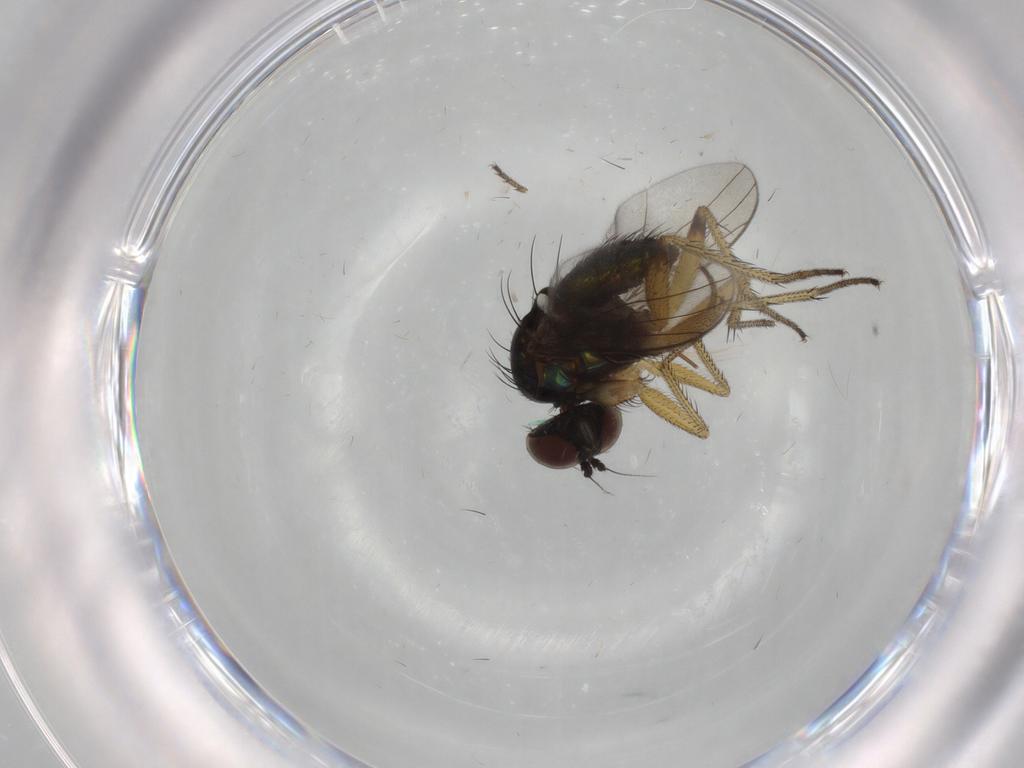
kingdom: Animalia
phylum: Arthropoda
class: Insecta
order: Diptera
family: Dolichopodidae
